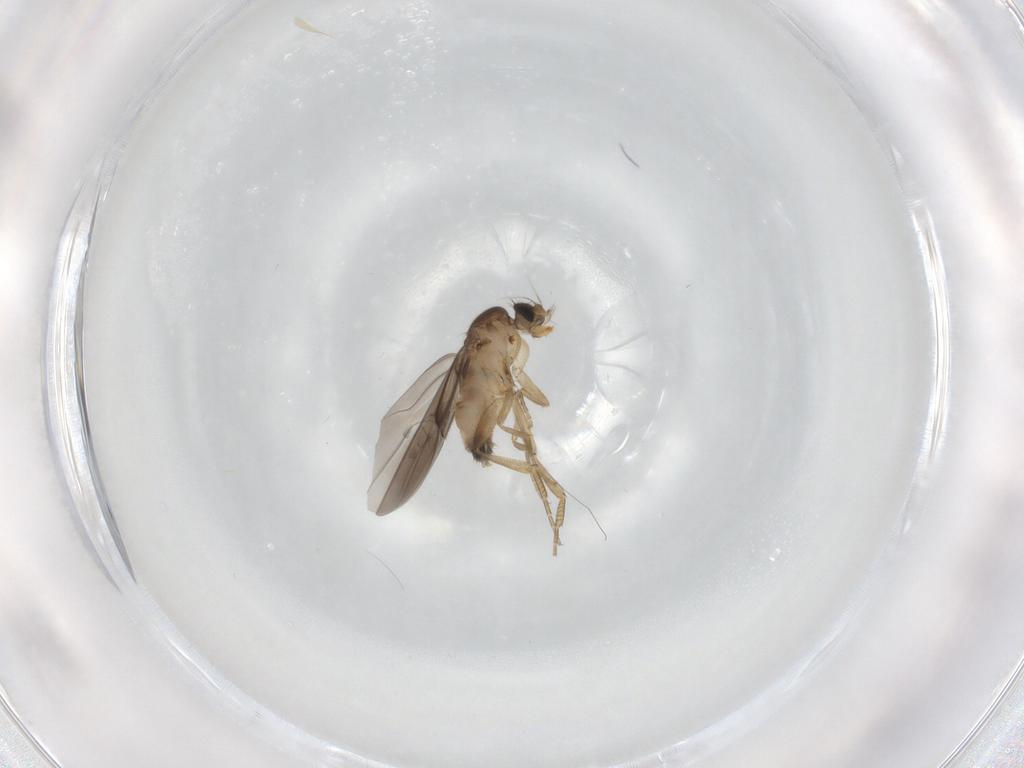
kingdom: Animalia
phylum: Arthropoda
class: Insecta
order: Diptera
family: Phoridae
